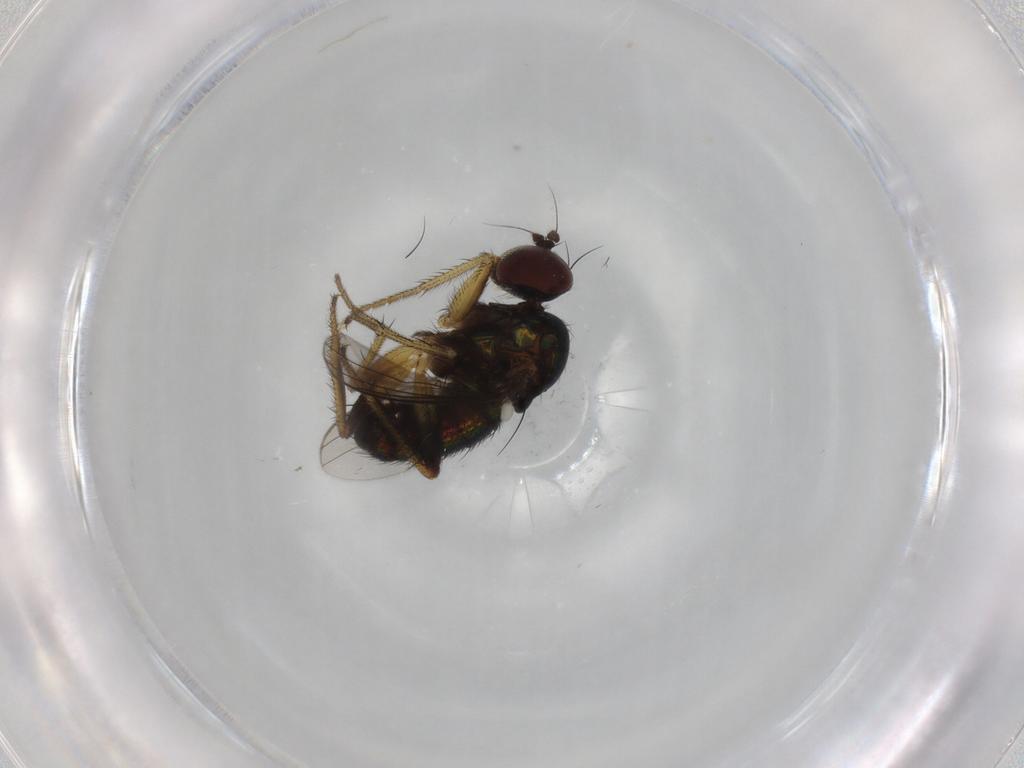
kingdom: Animalia
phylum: Arthropoda
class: Insecta
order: Diptera
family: Dolichopodidae
